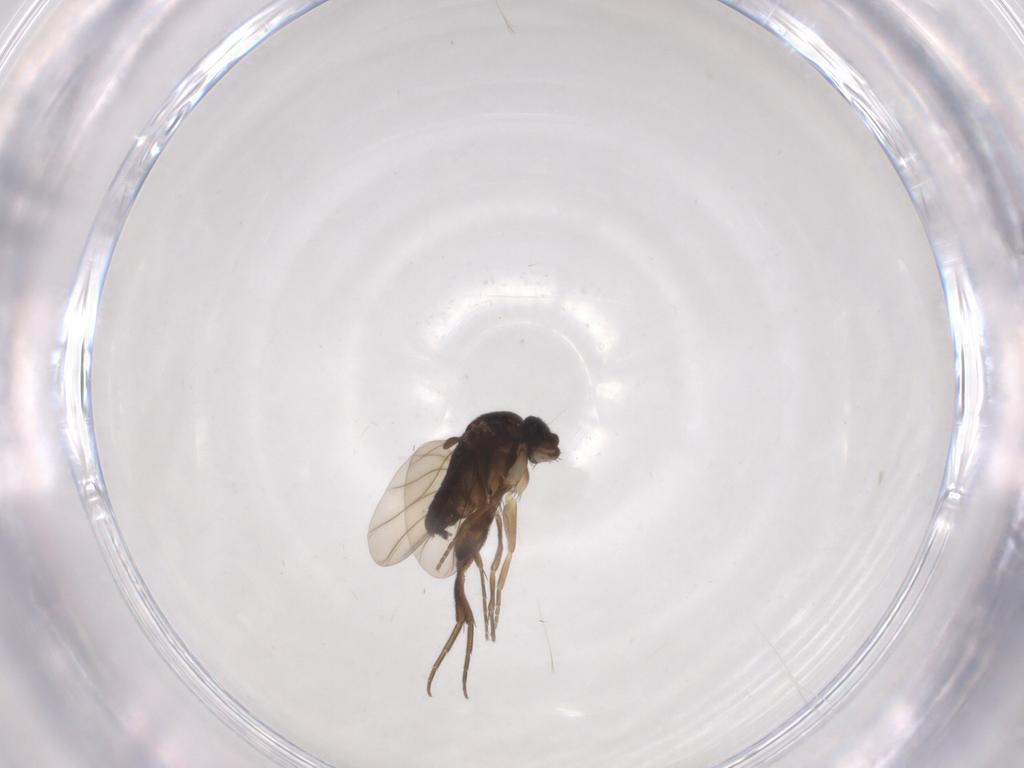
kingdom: Animalia
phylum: Arthropoda
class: Insecta
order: Diptera
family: Phoridae
